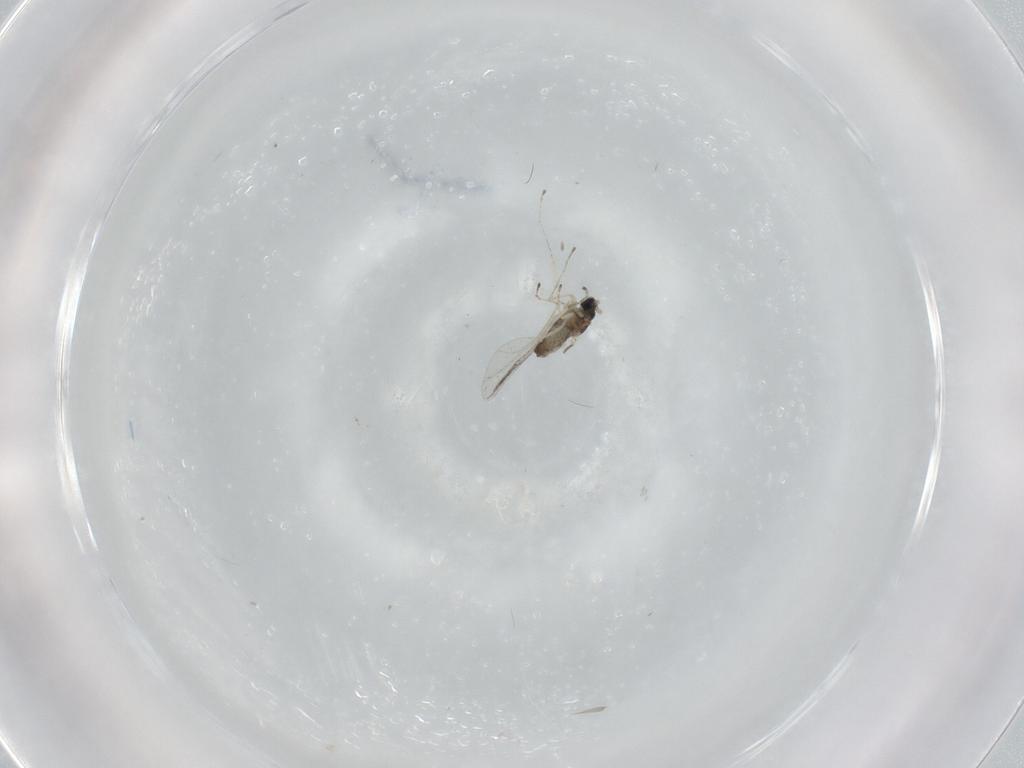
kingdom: Animalia
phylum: Arthropoda
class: Insecta
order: Diptera
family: Cecidomyiidae
